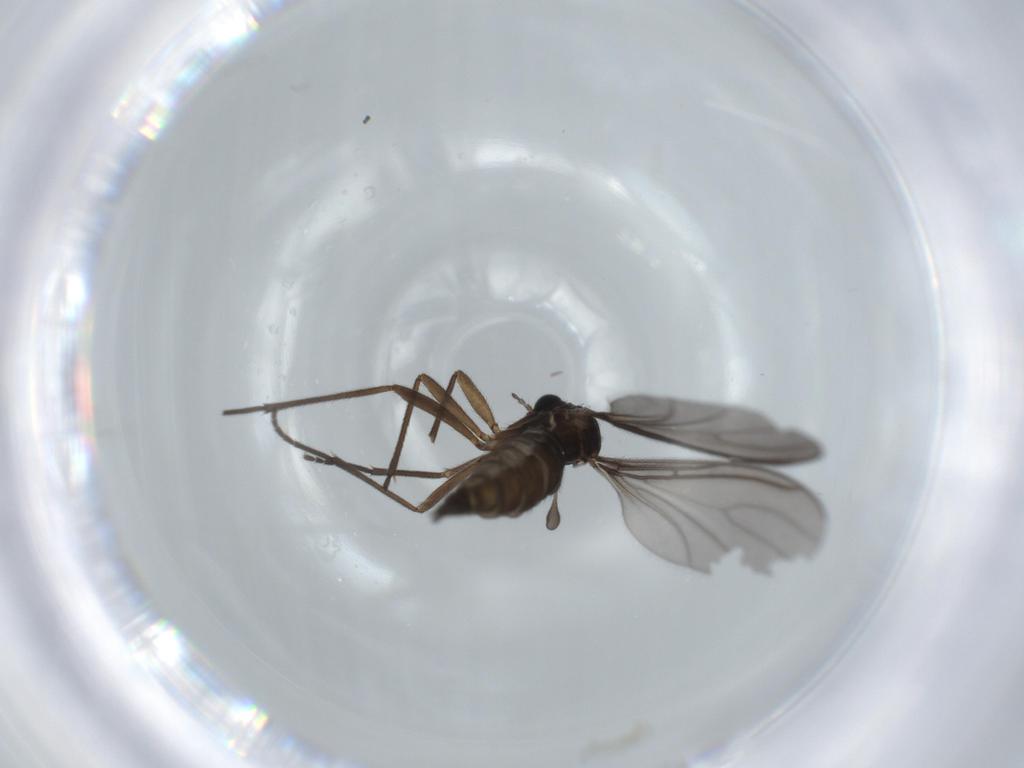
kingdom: Animalia
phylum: Arthropoda
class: Insecta
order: Diptera
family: Sciaridae
